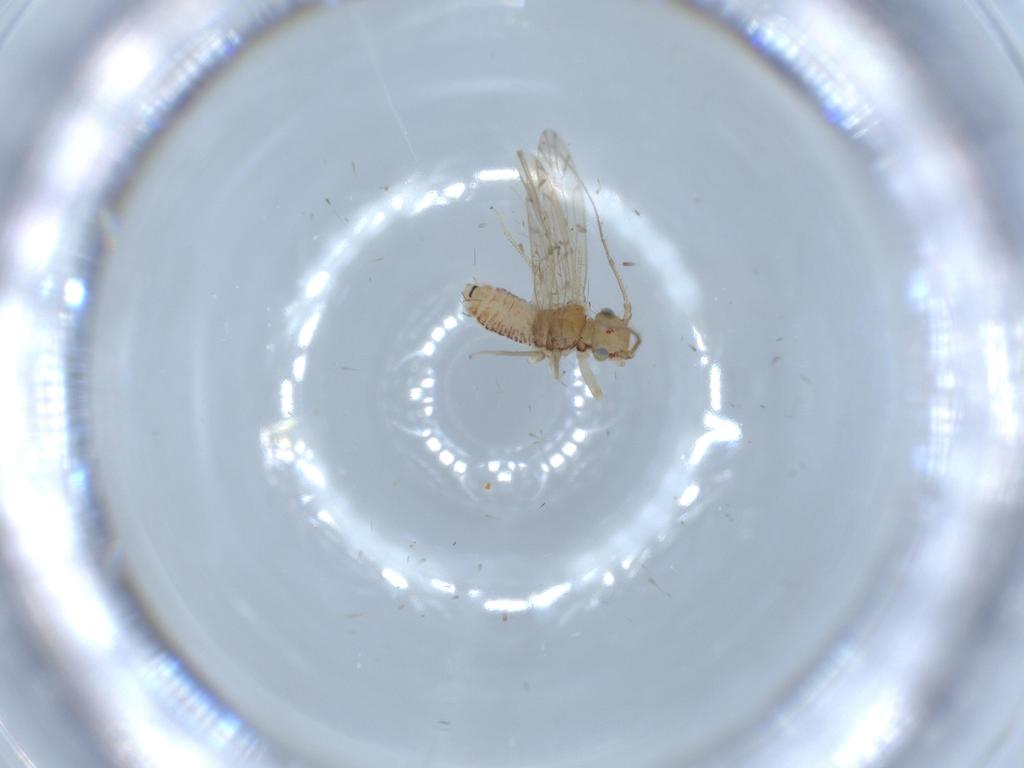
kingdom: Animalia
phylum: Arthropoda
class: Insecta
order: Psocodea
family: Ectopsocidae
